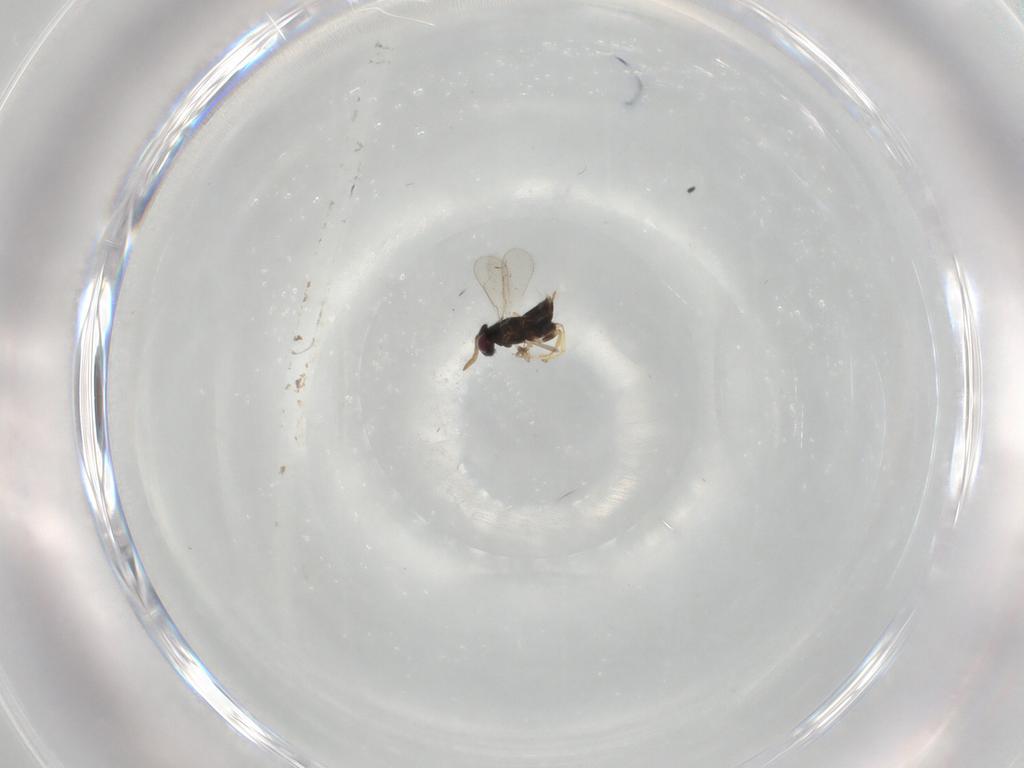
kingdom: Animalia
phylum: Arthropoda
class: Insecta
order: Hymenoptera
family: Aphelinidae
